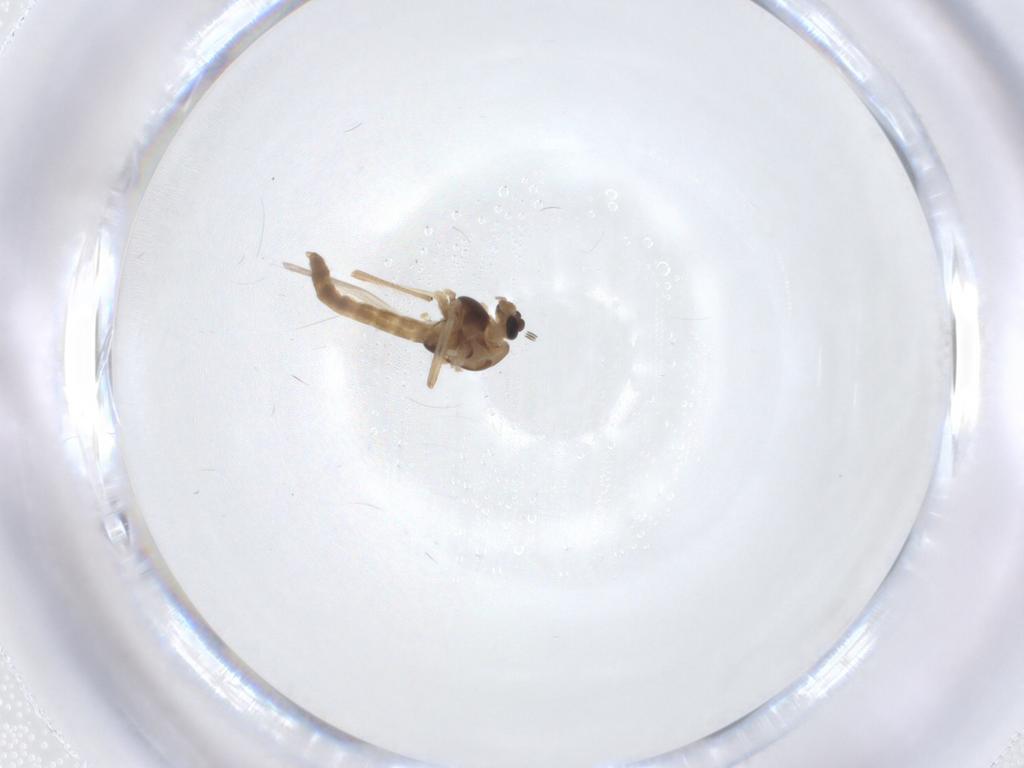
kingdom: Animalia
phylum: Arthropoda
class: Insecta
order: Diptera
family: Chironomidae
